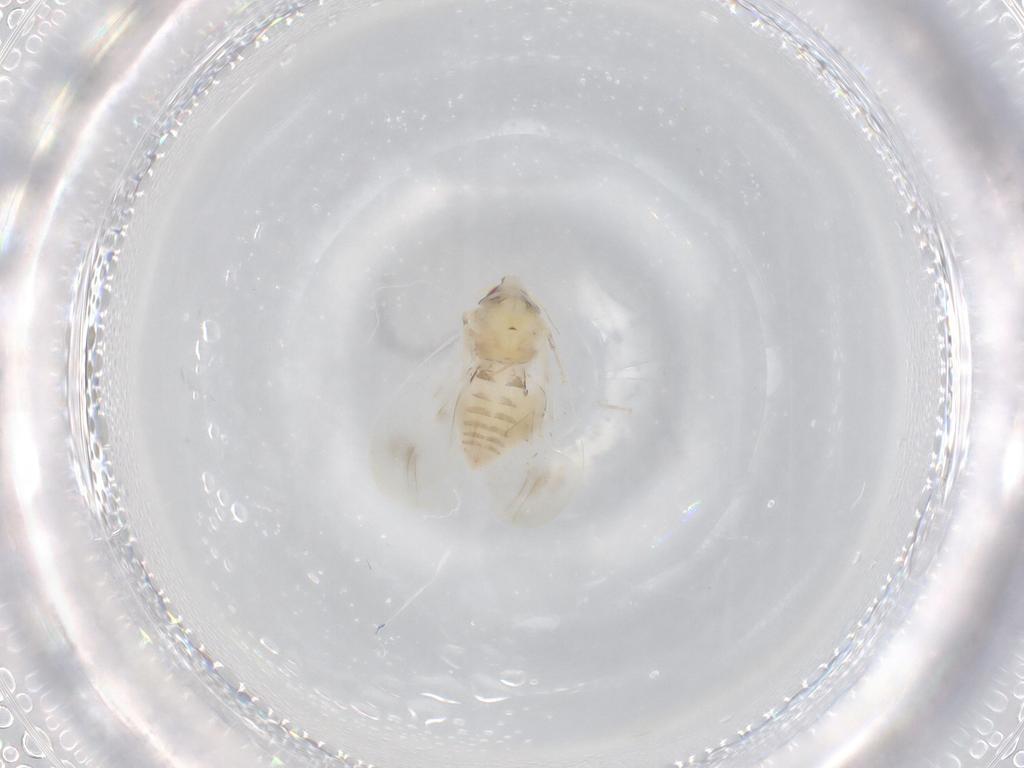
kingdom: Animalia
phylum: Arthropoda
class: Insecta
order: Hemiptera
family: Aleyrodidae
